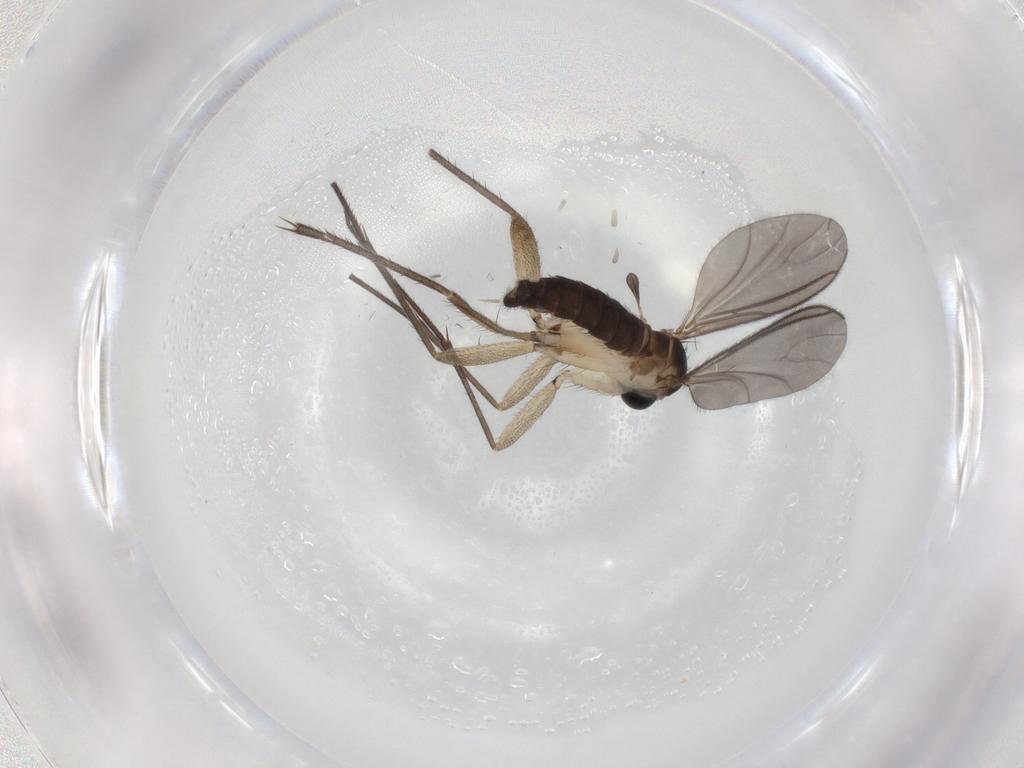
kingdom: Animalia
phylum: Arthropoda
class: Insecta
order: Diptera
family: Sciaridae
